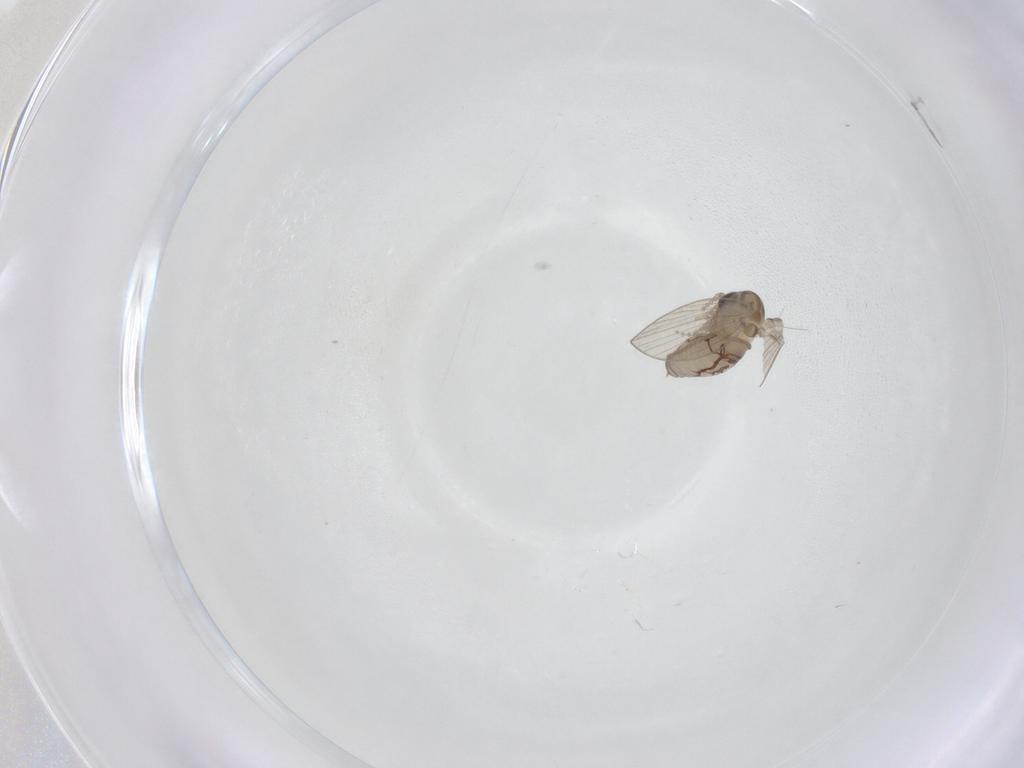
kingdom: Animalia
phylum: Arthropoda
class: Insecta
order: Diptera
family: Psychodidae
